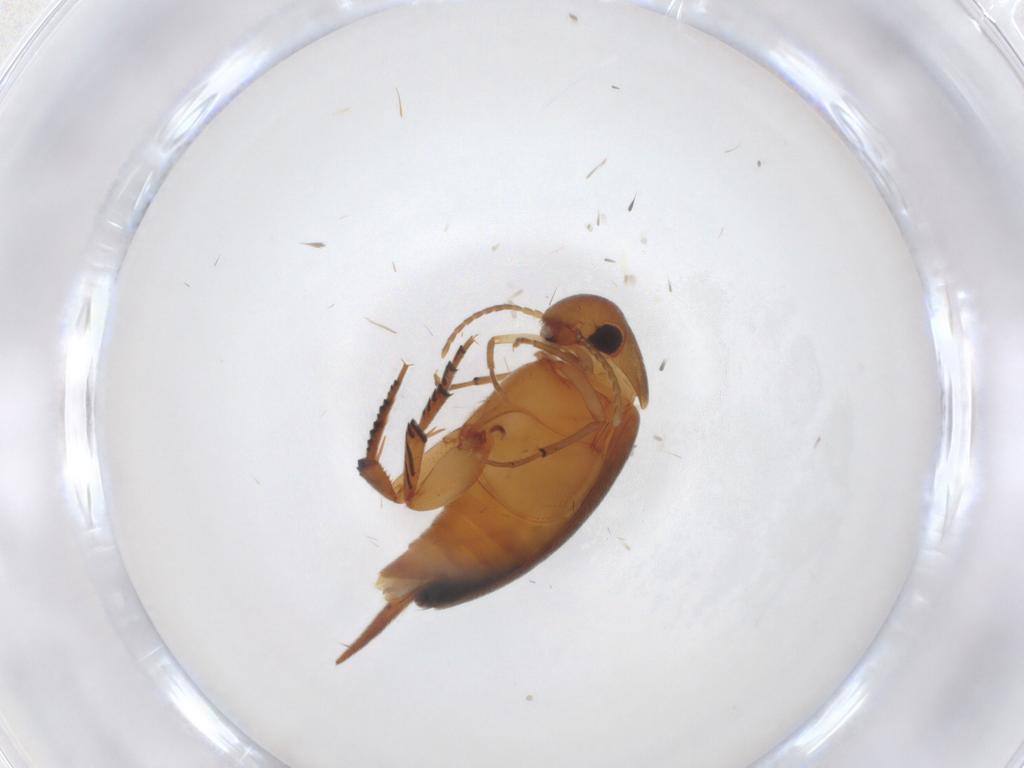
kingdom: Animalia
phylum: Arthropoda
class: Insecta
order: Coleoptera
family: Mordellidae
